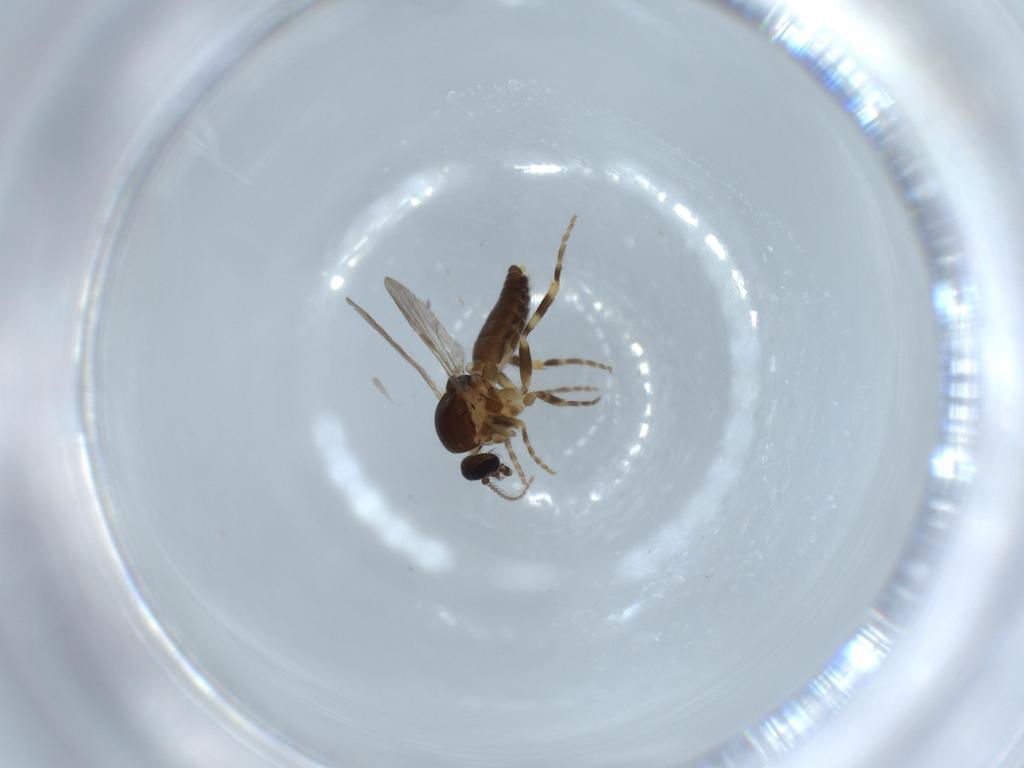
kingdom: Animalia
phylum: Arthropoda
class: Insecta
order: Diptera
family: Ceratopogonidae
